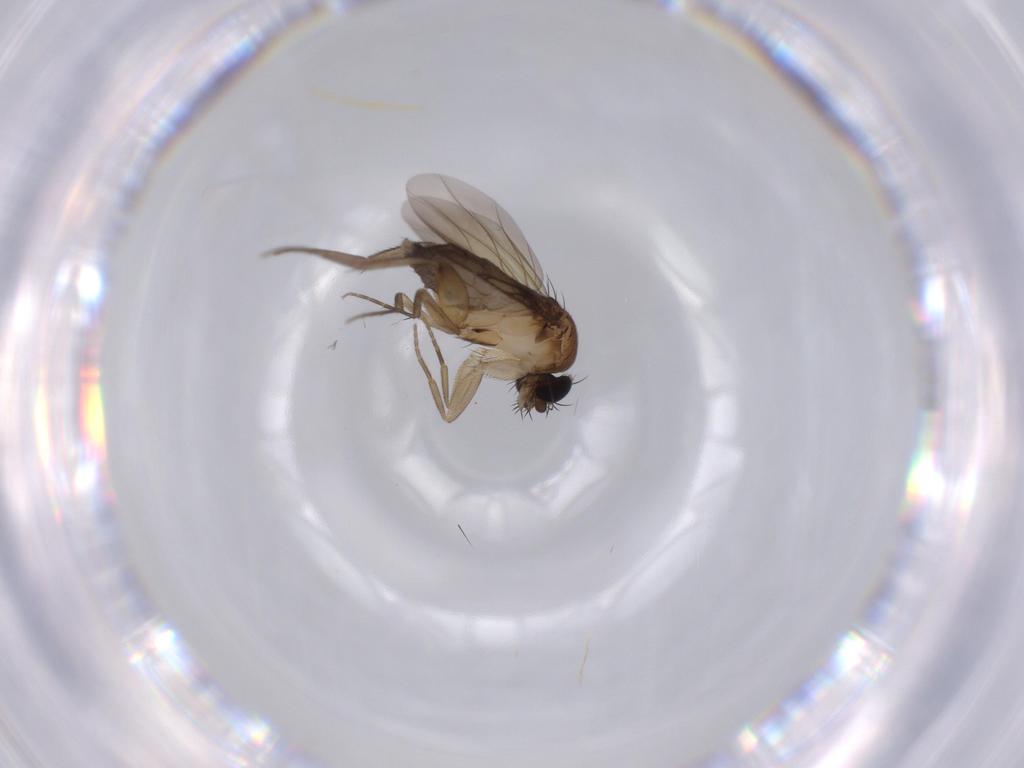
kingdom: Animalia
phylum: Arthropoda
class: Insecta
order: Diptera
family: Phoridae
